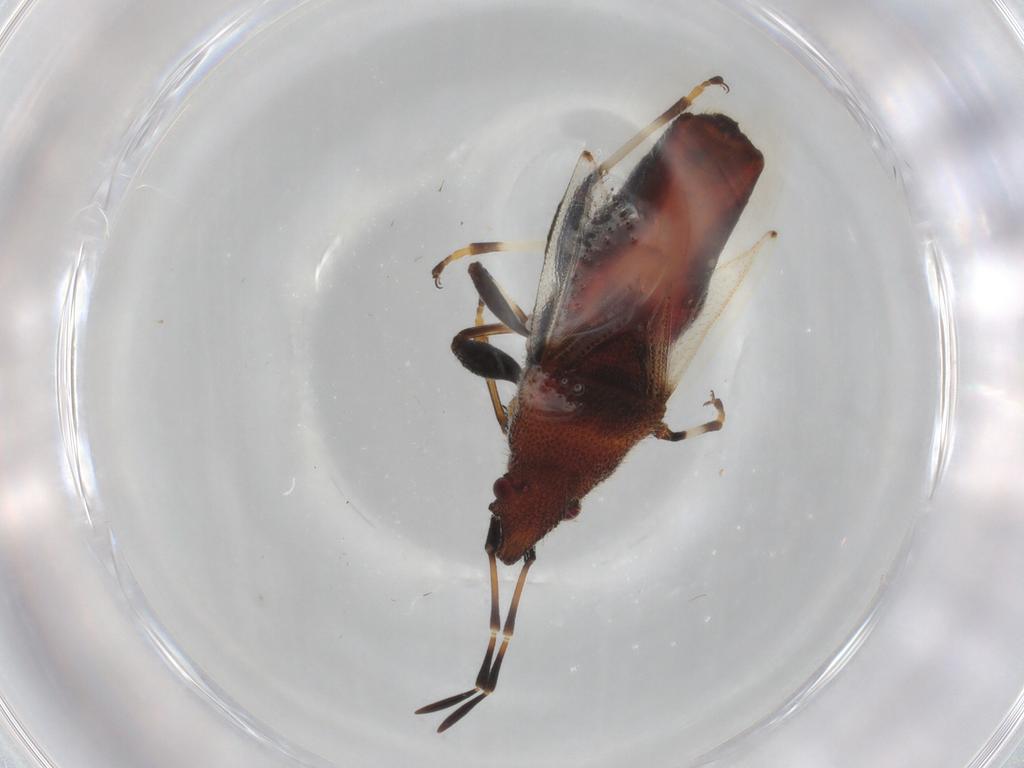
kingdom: Animalia
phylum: Arthropoda
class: Insecta
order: Hemiptera
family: Oxycarenidae
